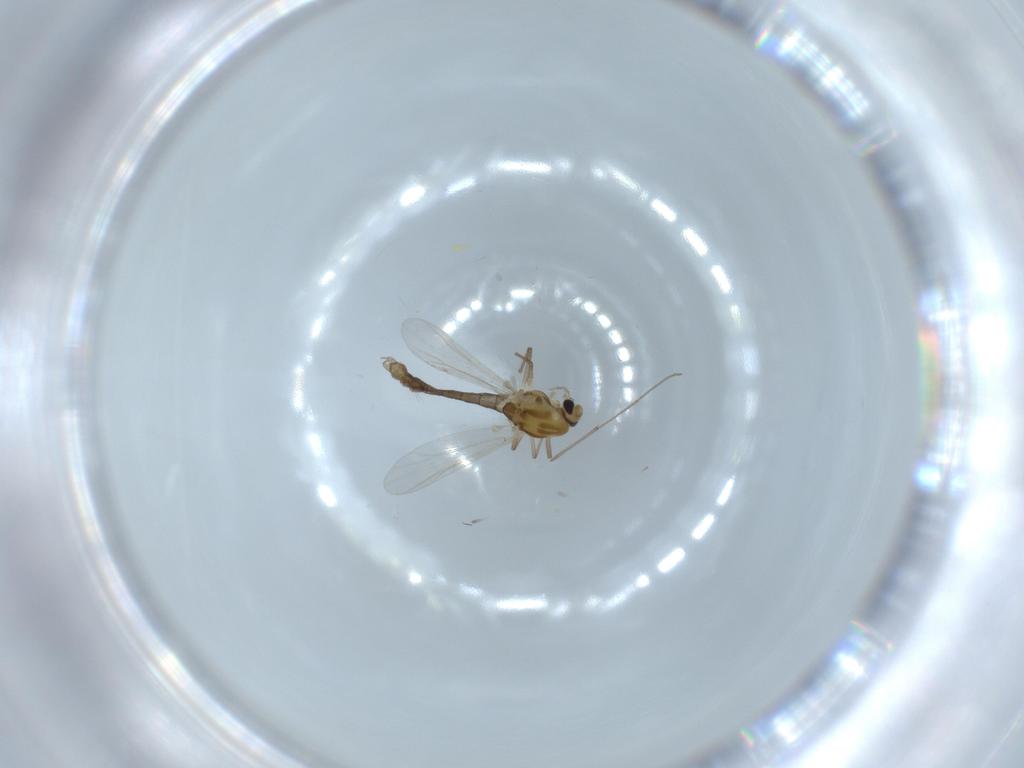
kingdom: Animalia
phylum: Arthropoda
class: Insecta
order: Diptera
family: Chironomidae
